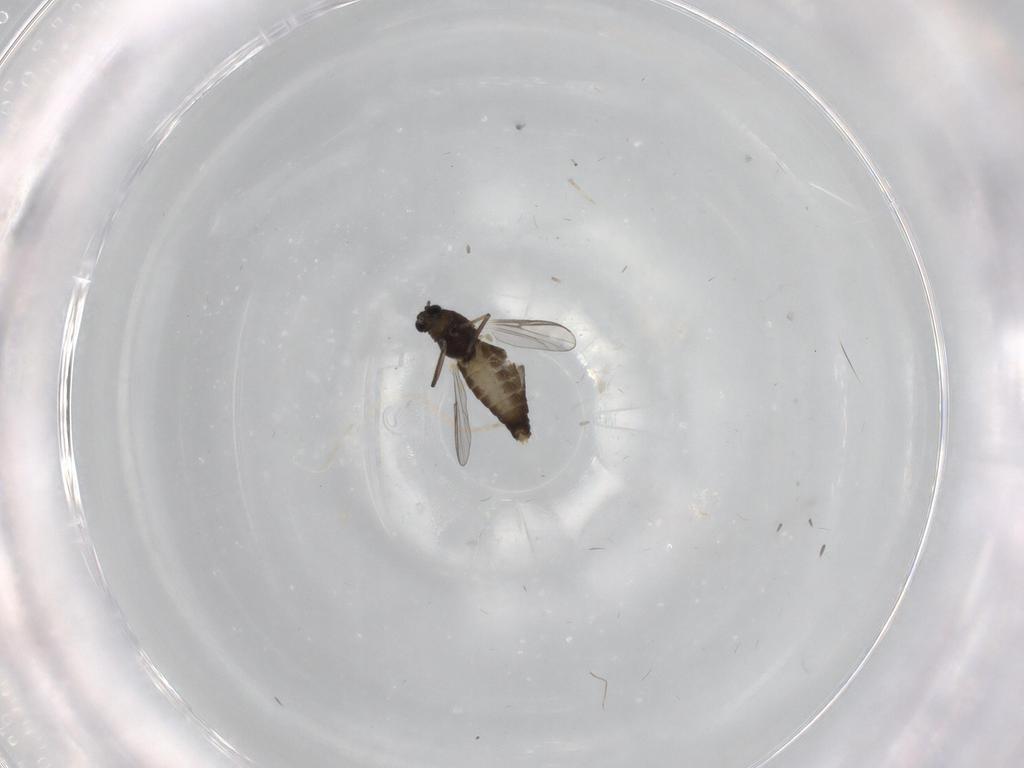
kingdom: Animalia
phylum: Arthropoda
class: Insecta
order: Diptera
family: Chironomidae
